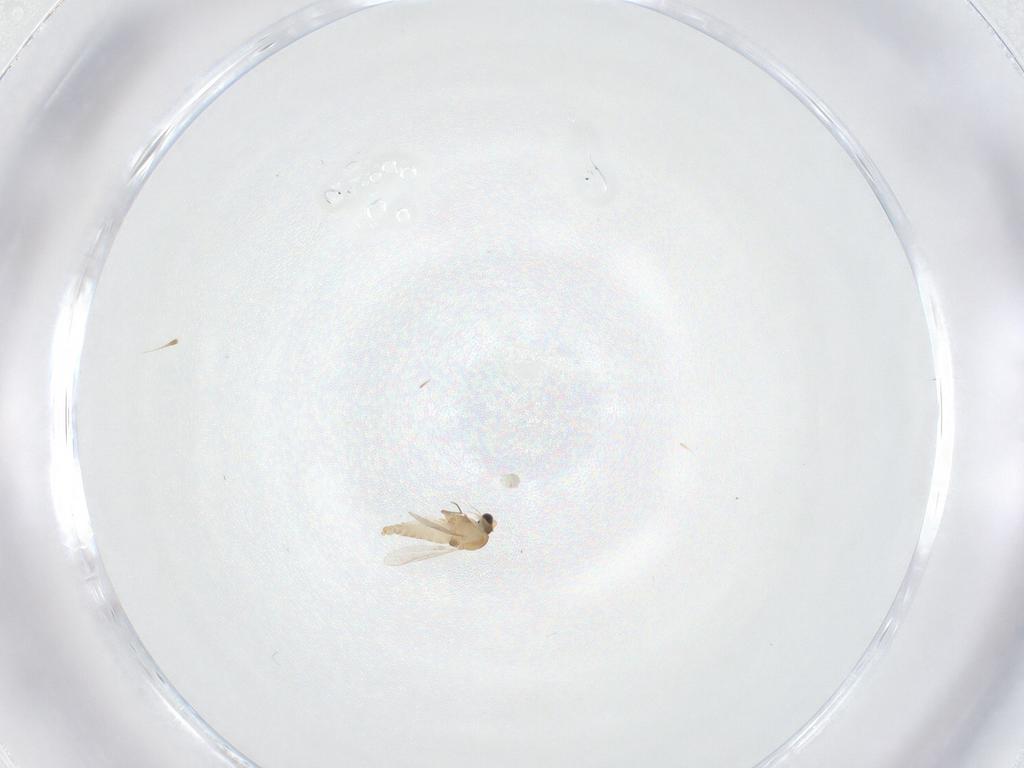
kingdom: Animalia
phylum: Arthropoda
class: Insecta
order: Diptera
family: Cecidomyiidae
